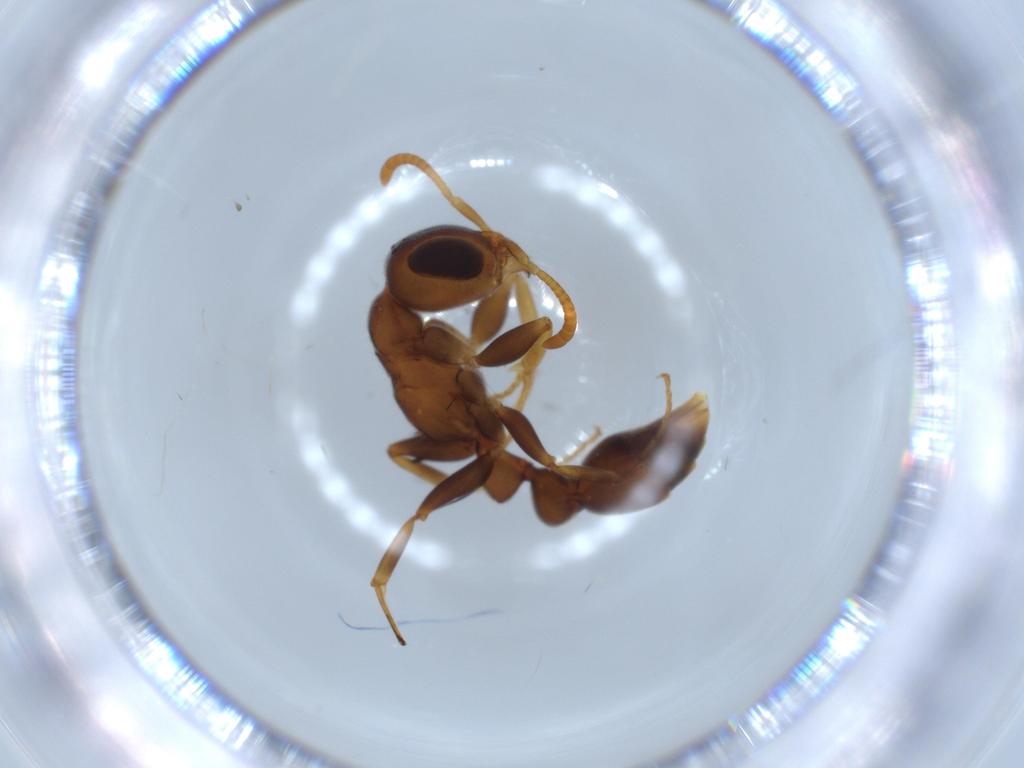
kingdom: Animalia
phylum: Arthropoda
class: Insecta
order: Hymenoptera
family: Formicidae
